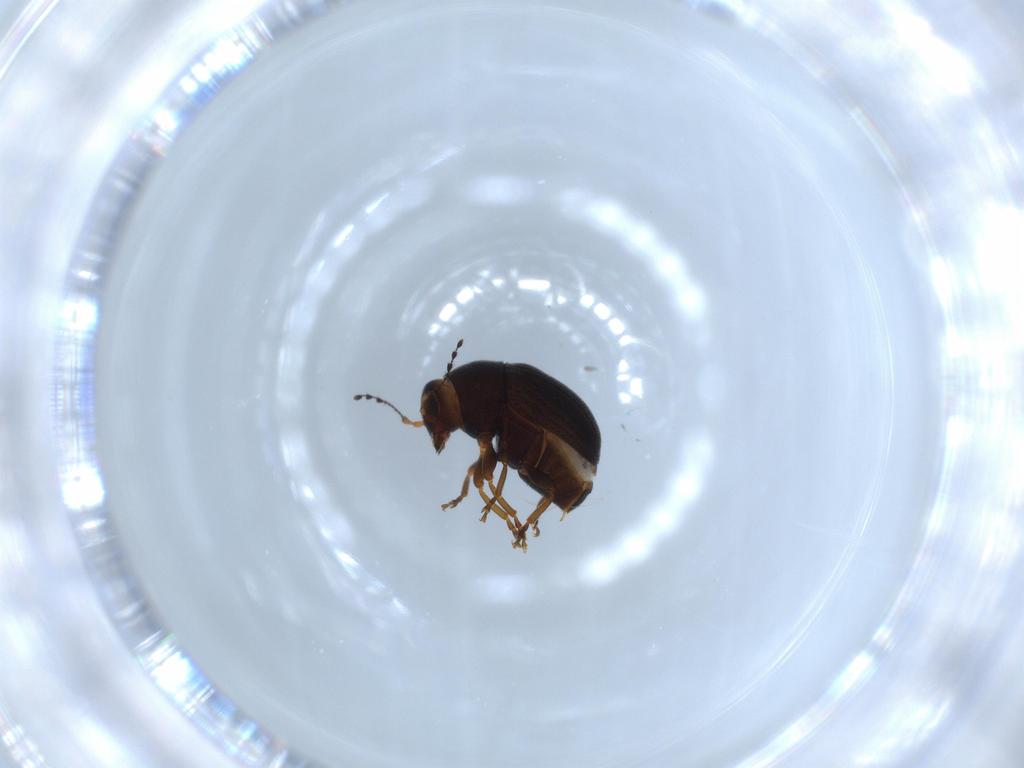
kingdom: Animalia
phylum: Arthropoda
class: Insecta
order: Coleoptera
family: Anthribidae
